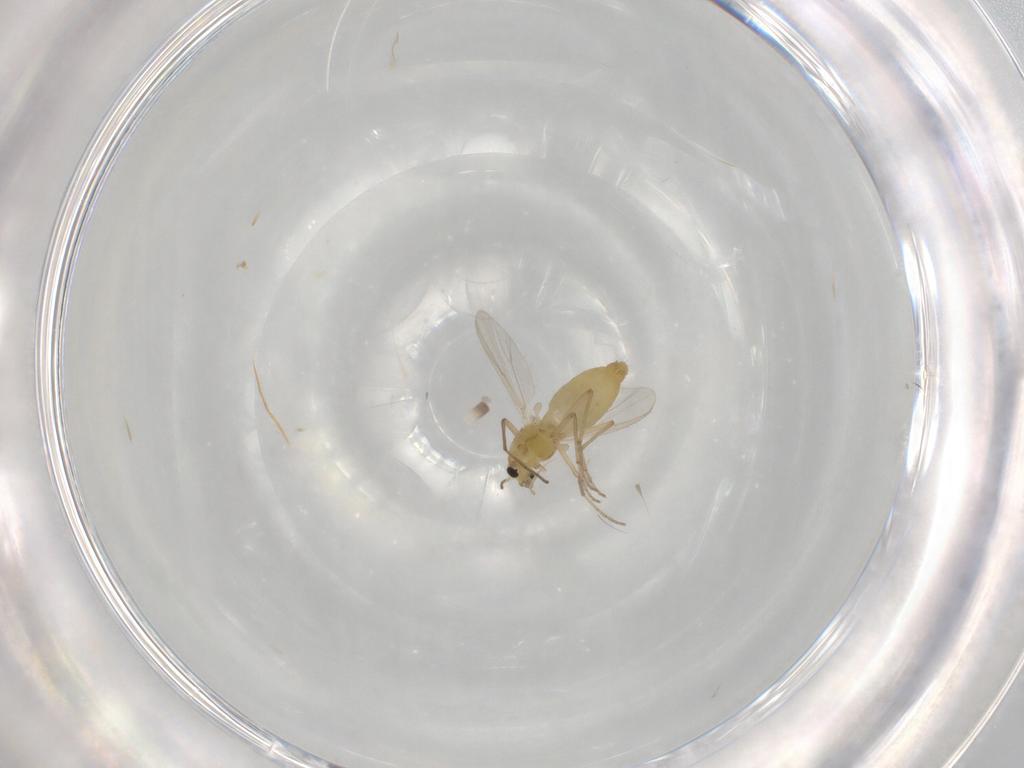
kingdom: Animalia
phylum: Arthropoda
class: Insecta
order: Diptera
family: Chironomidae
